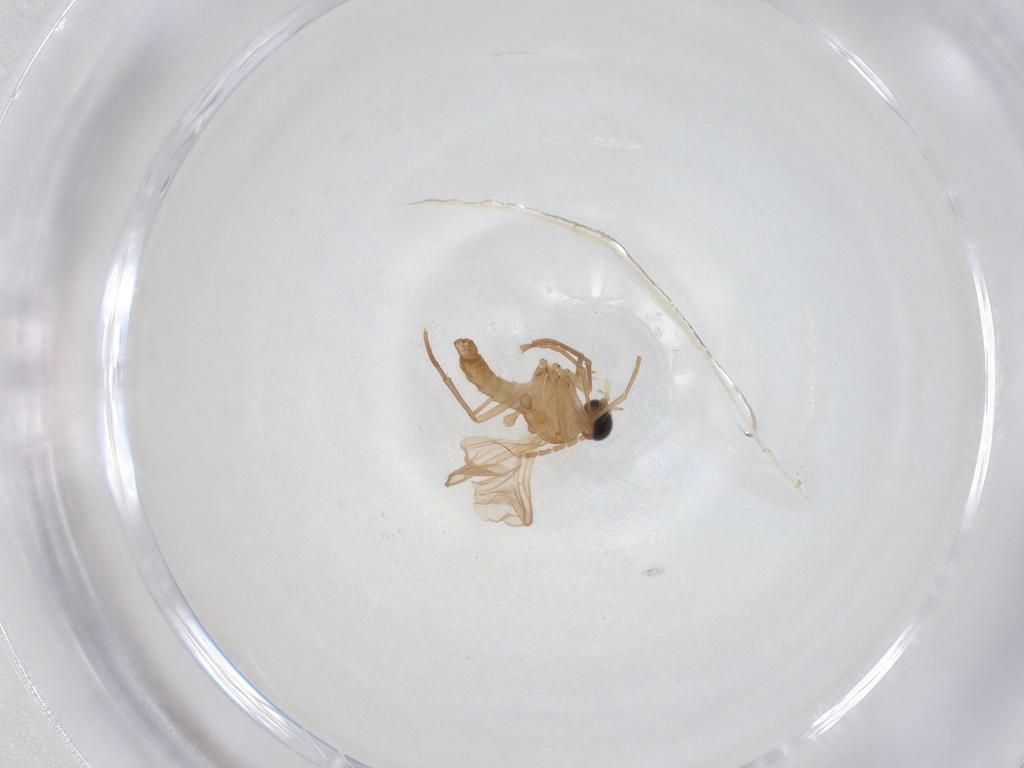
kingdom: Animalia
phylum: Arthropoda
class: Insecta
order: Diptera
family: Sciaridae
